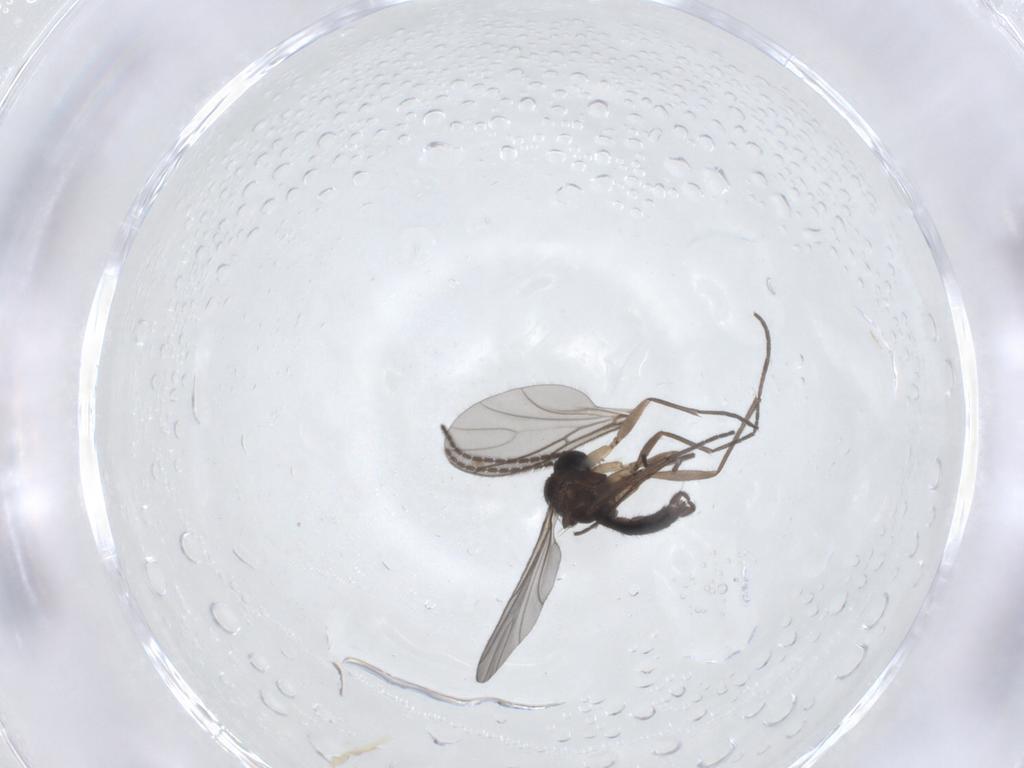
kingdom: Animalia
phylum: Arthropoda
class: Insecta
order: Diptera
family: Sciaridae
